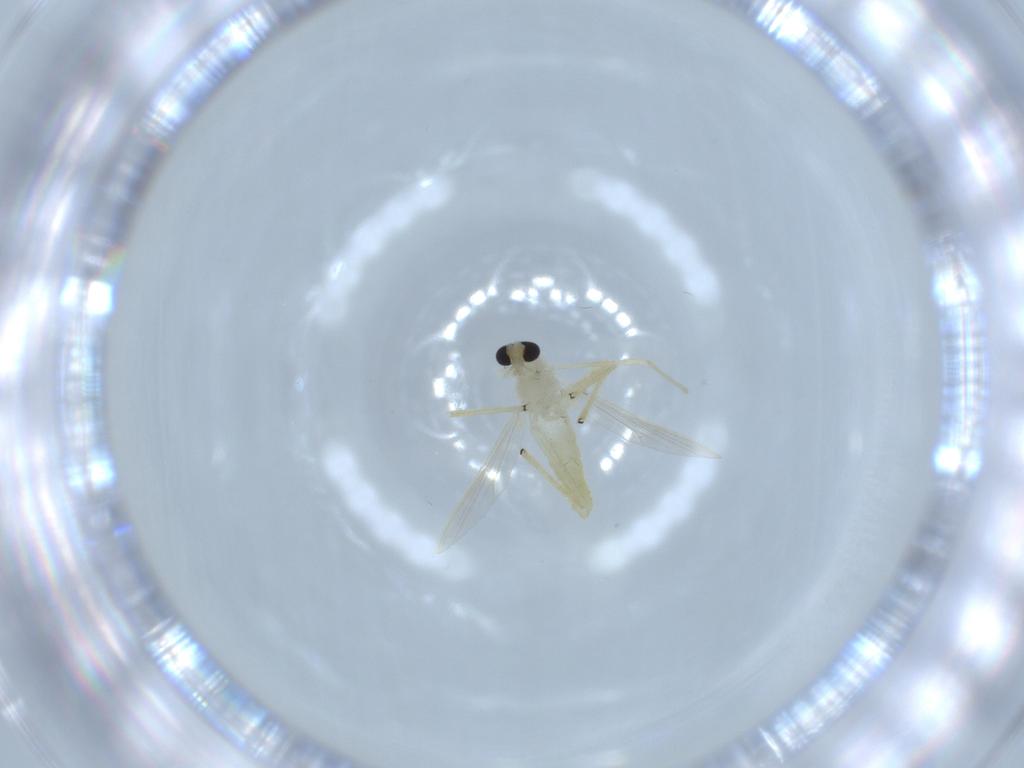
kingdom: Animalia
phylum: Arthropoda
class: Insecta
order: Diptera
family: Chironomidae
